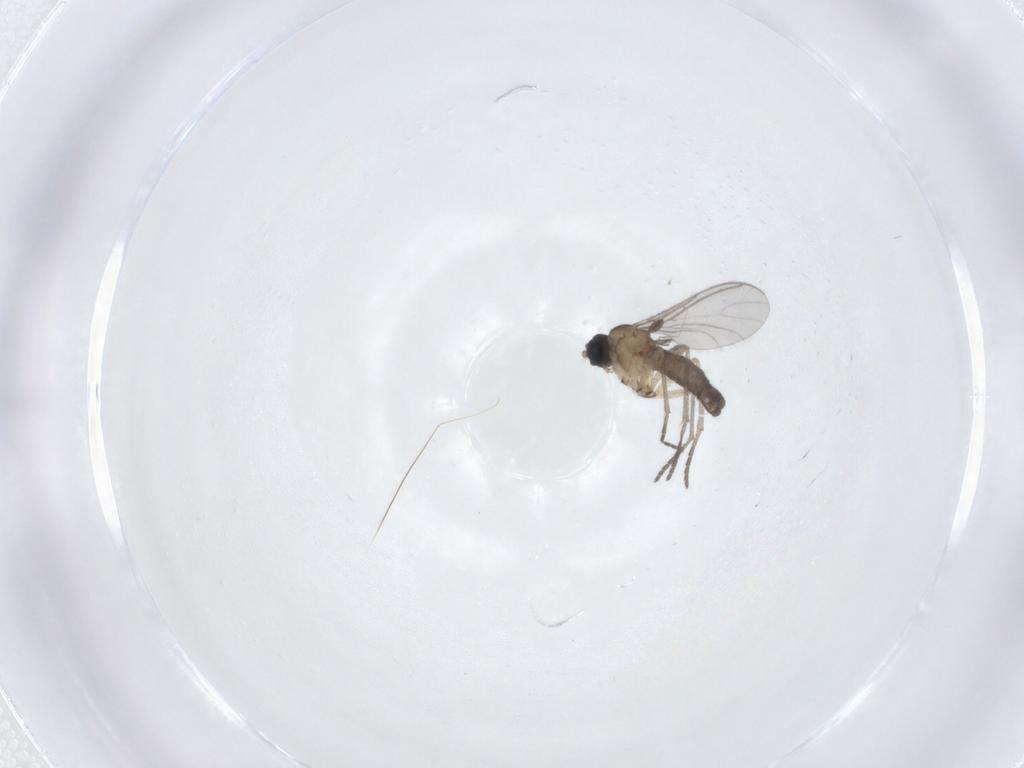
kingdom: Animalia
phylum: Arthropoda
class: Insecta
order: Diptera
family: Sciaridae
